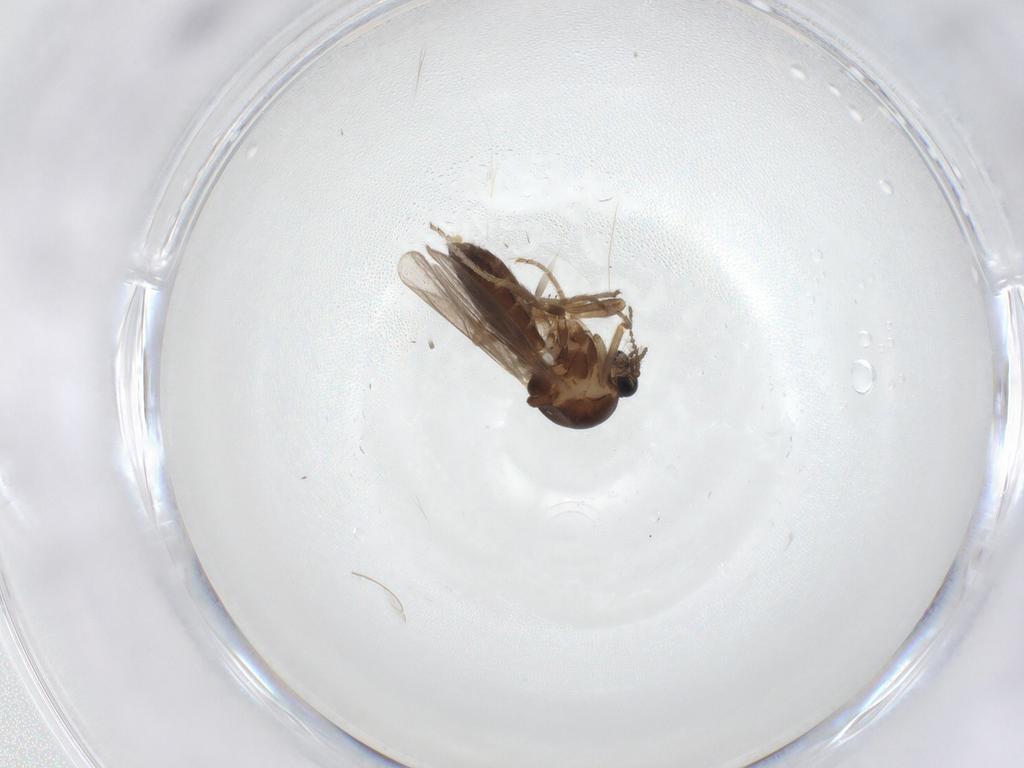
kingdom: Animalia
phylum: Arthropoda
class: Insecta
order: Diptera
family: Ceratopogonidae
